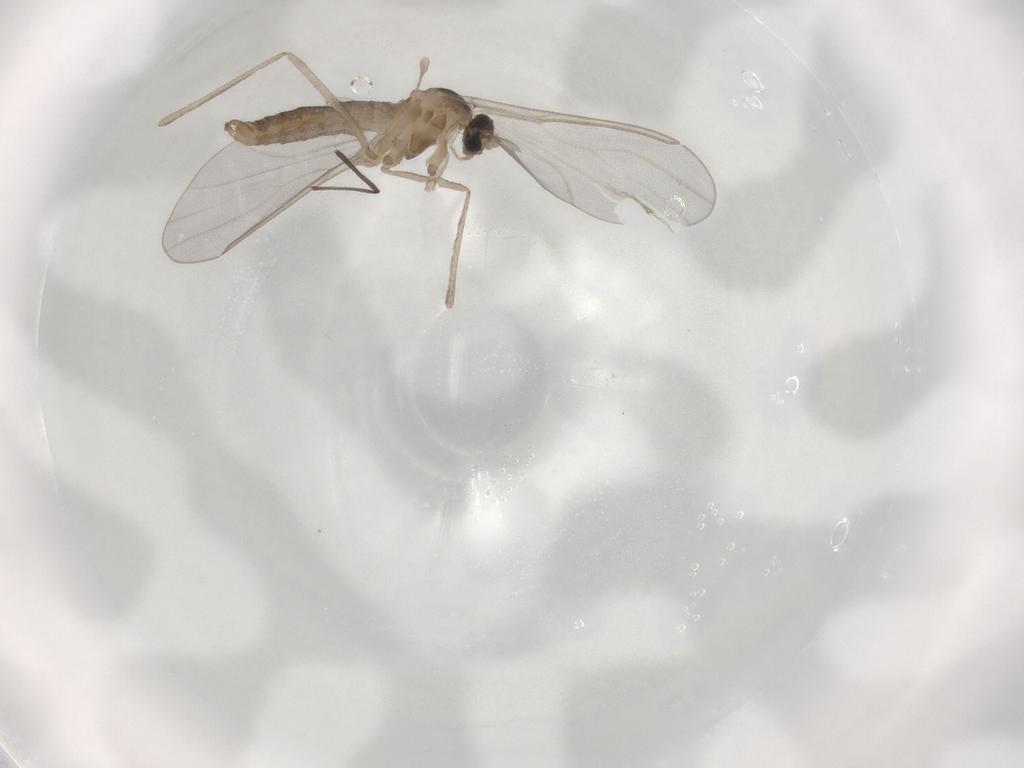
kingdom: Animalia
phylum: Arthropoda
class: Insecta
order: Diptera
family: Cecidomyiidae
